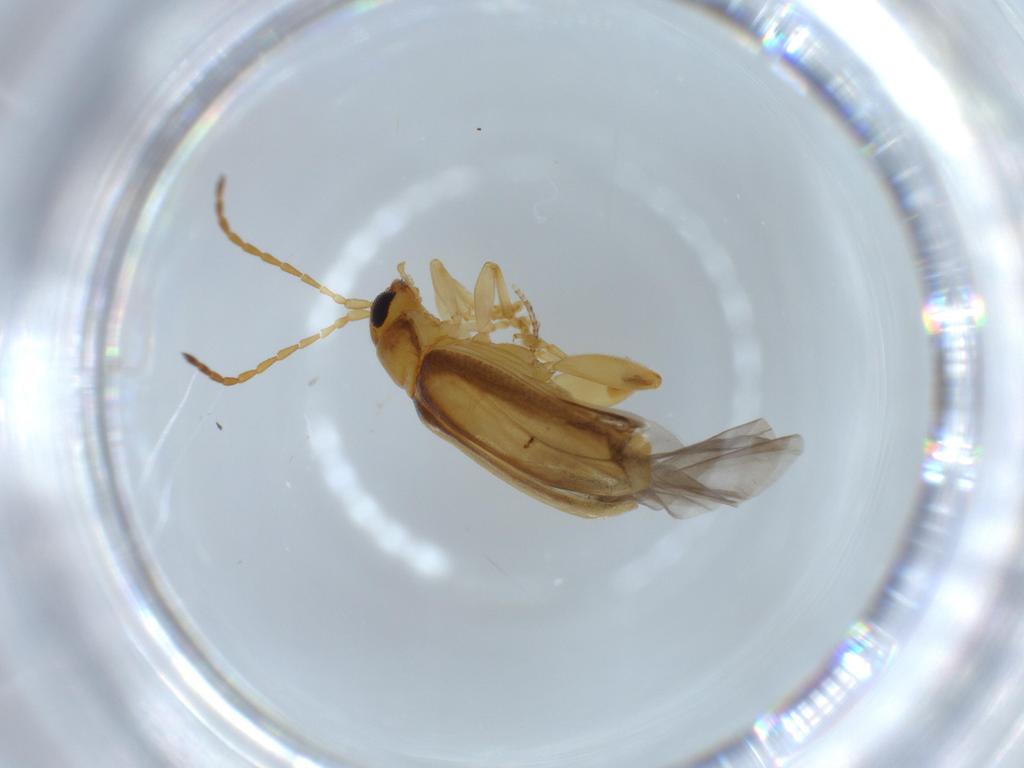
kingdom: Animalia
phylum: Arthropoda
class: Insecta
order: Coleoptera
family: Chrysomelidae
